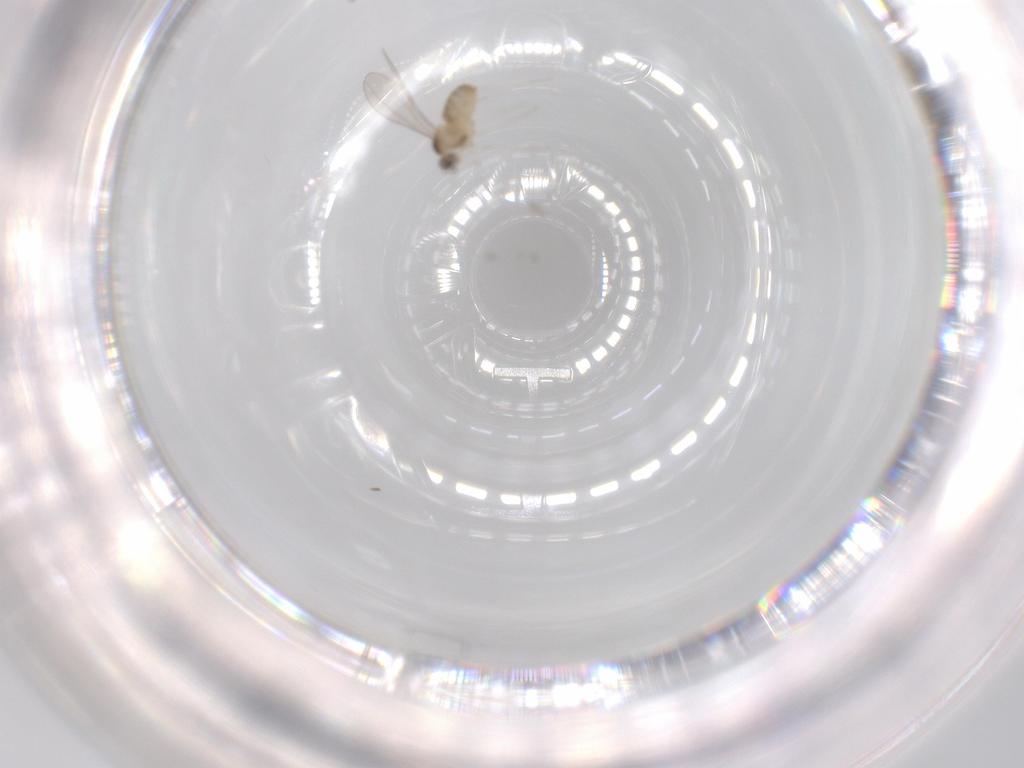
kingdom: Animalia
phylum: Arthropoda
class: Insecta
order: Diptera
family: Cecidomyiidae
